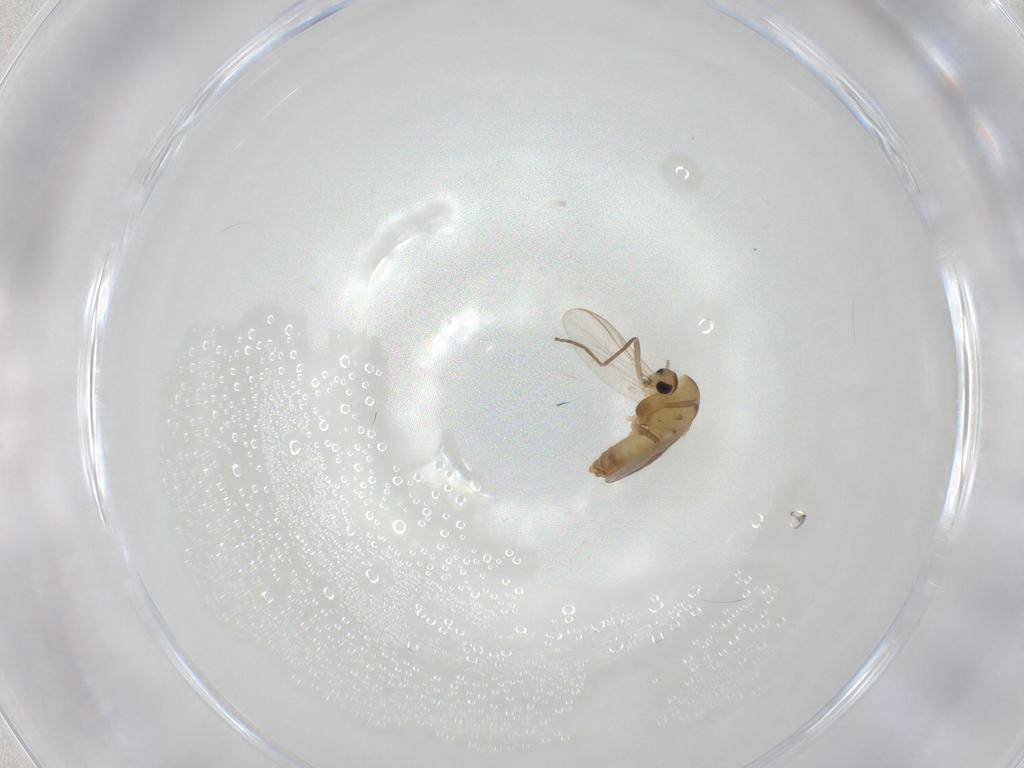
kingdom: Animalia
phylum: Arthropoda
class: Insecta
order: Diptera
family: Chironomidae
